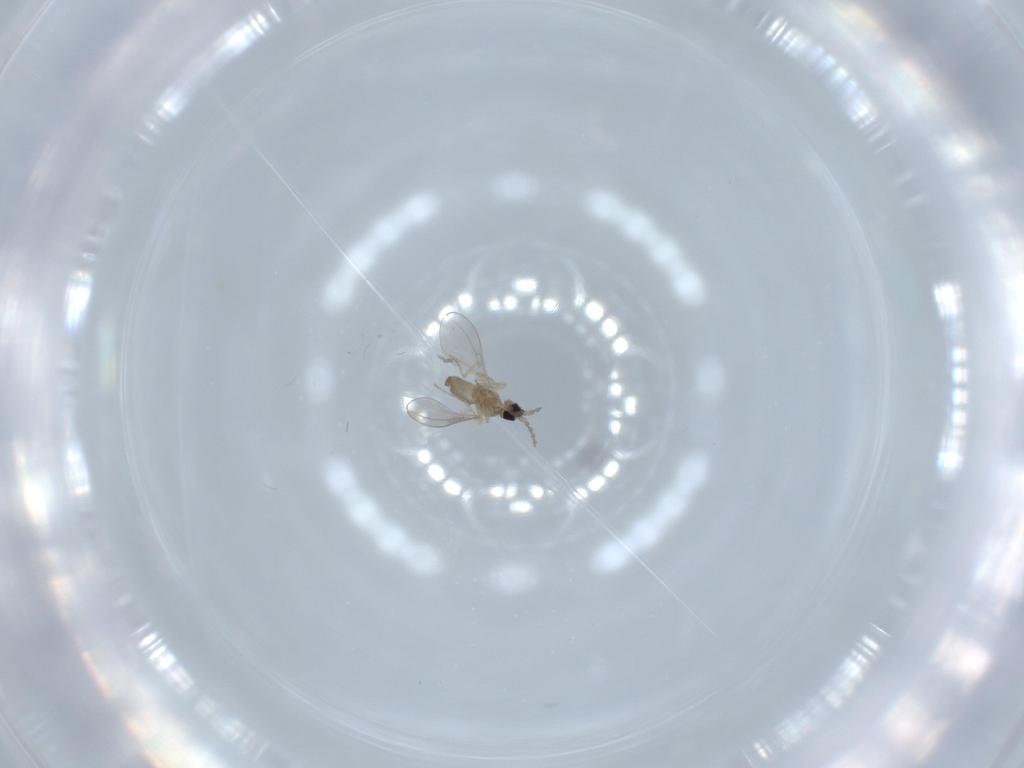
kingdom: Animalia
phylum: Arthropoda
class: Insecta
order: Diptera
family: Cecidomyiidae
